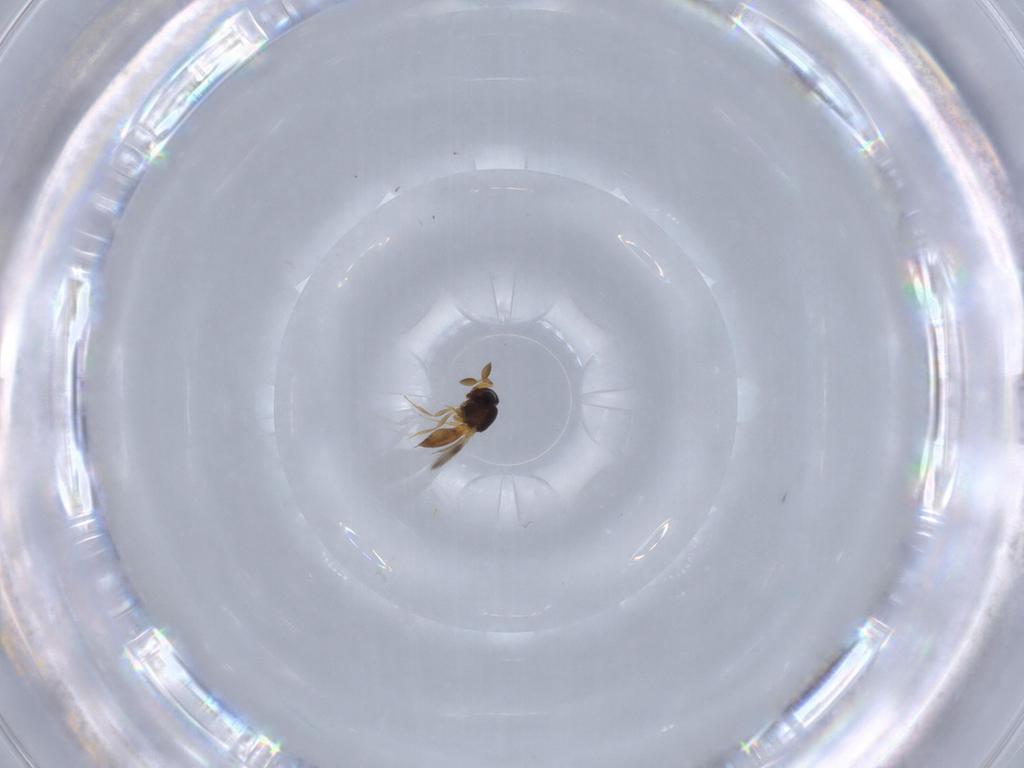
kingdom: Animalia
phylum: Arthropoda
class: Insecta
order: Hymenoptera
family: Scelionidae
